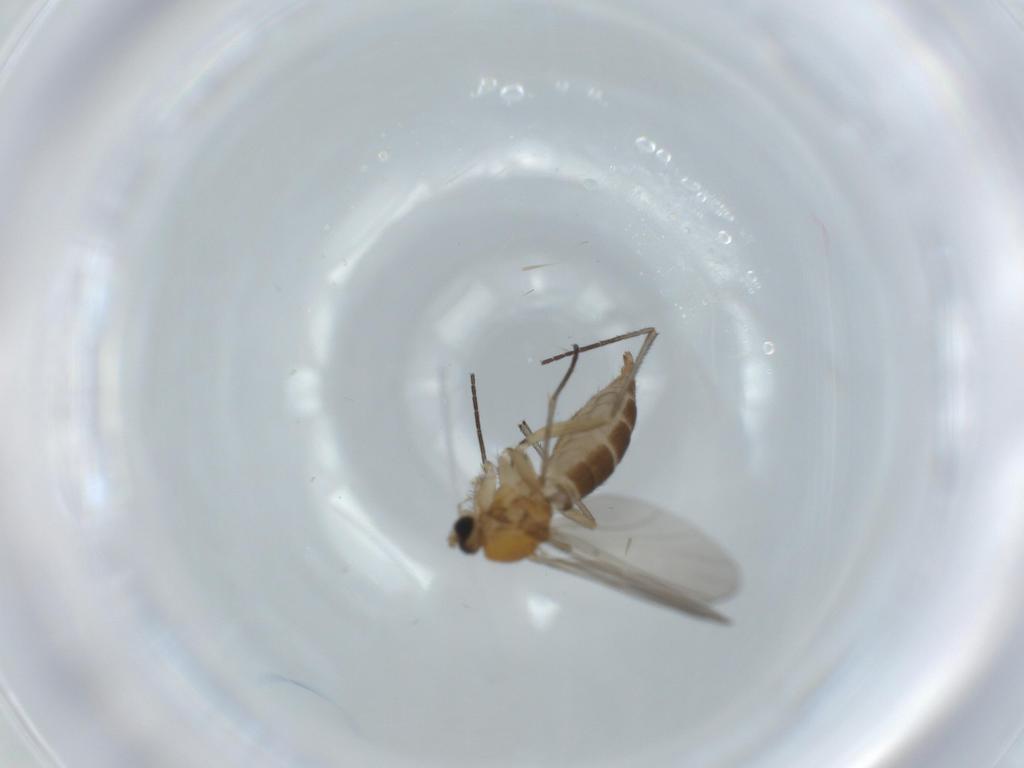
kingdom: Animalia
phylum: Arthropoda
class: Insecta
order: Diptera
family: Sciaridae
